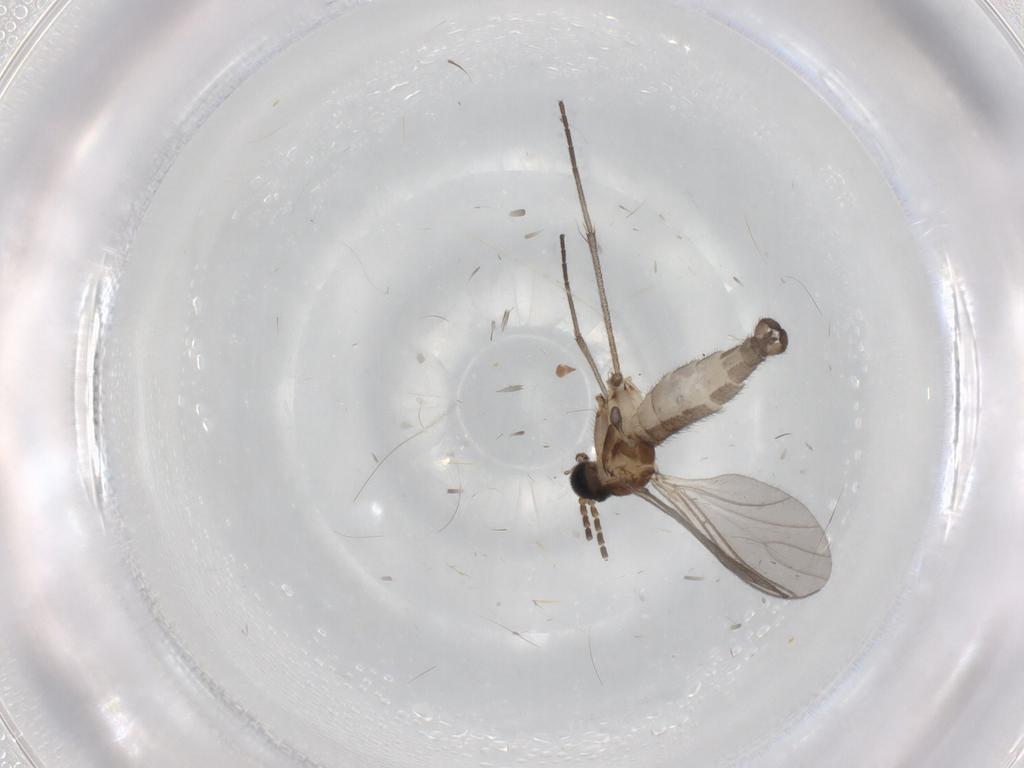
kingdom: Animalia
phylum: Arthropoda
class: Insecta
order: Diptera
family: Sciaridae
